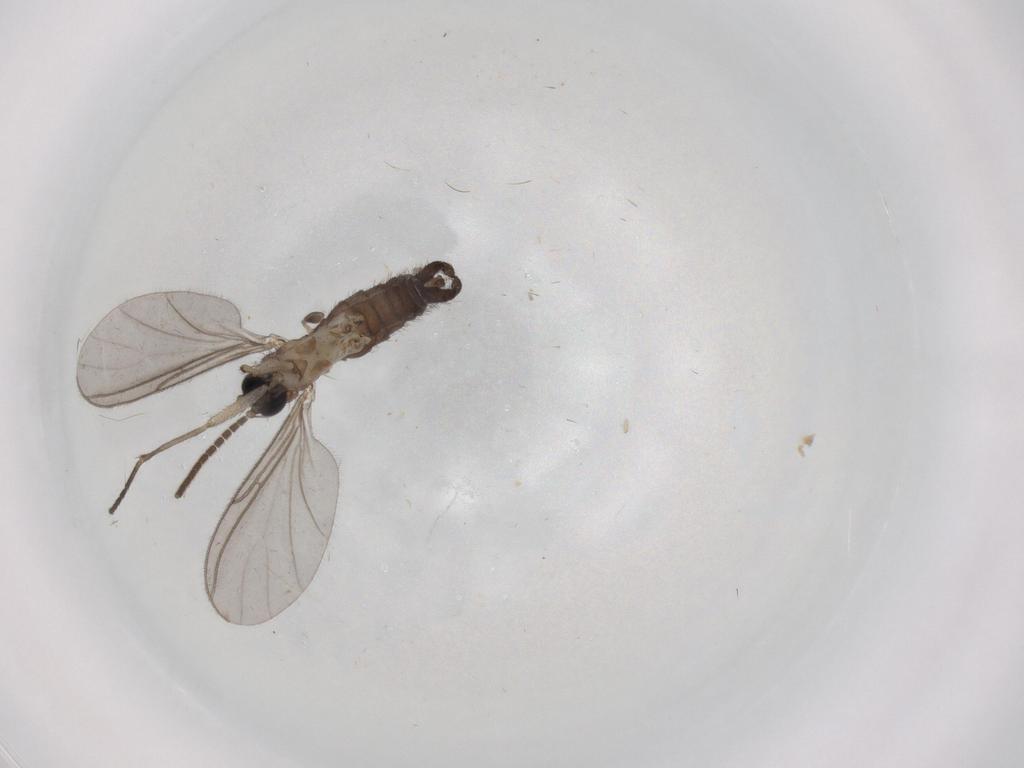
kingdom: Animalia
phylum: Arthropoda
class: Insecta
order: Diptera
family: Sciaridae
